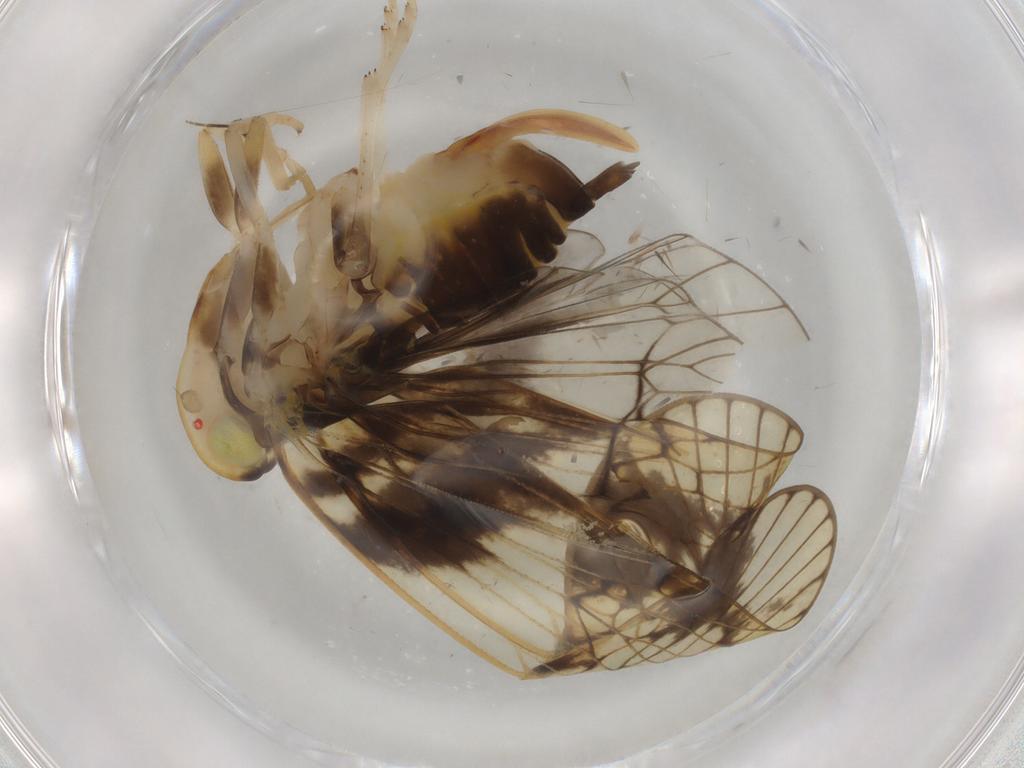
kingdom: Animalia
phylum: Arthropoda
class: Insecta
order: Hemiptera
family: Cixiidae
